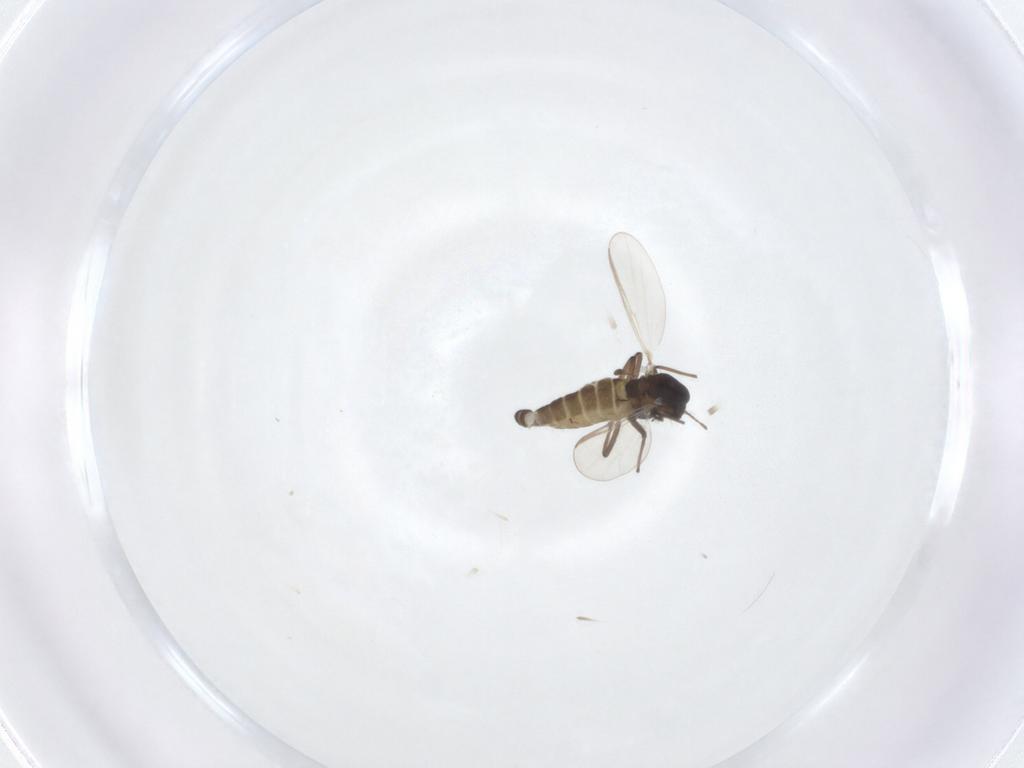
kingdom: Animalia
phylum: Arthropoda
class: Insecta
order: Diptera
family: Chironomidae
